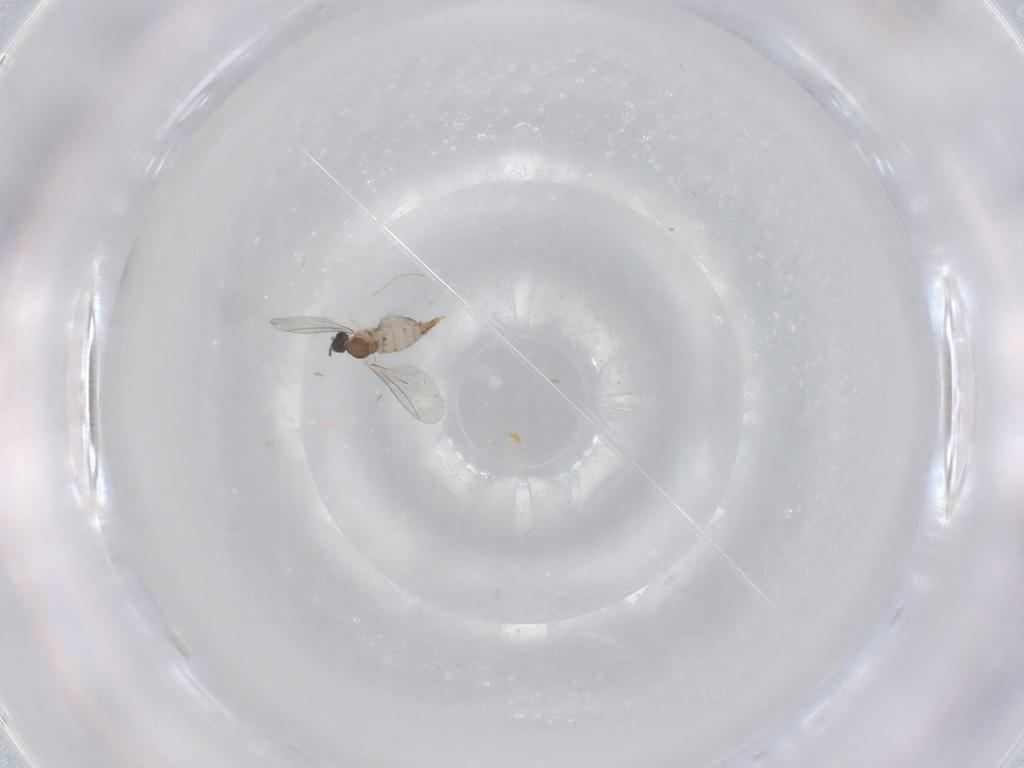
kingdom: Animalia
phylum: Arthropoda
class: Insecta
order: Diptera
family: Cecidomyiidae
